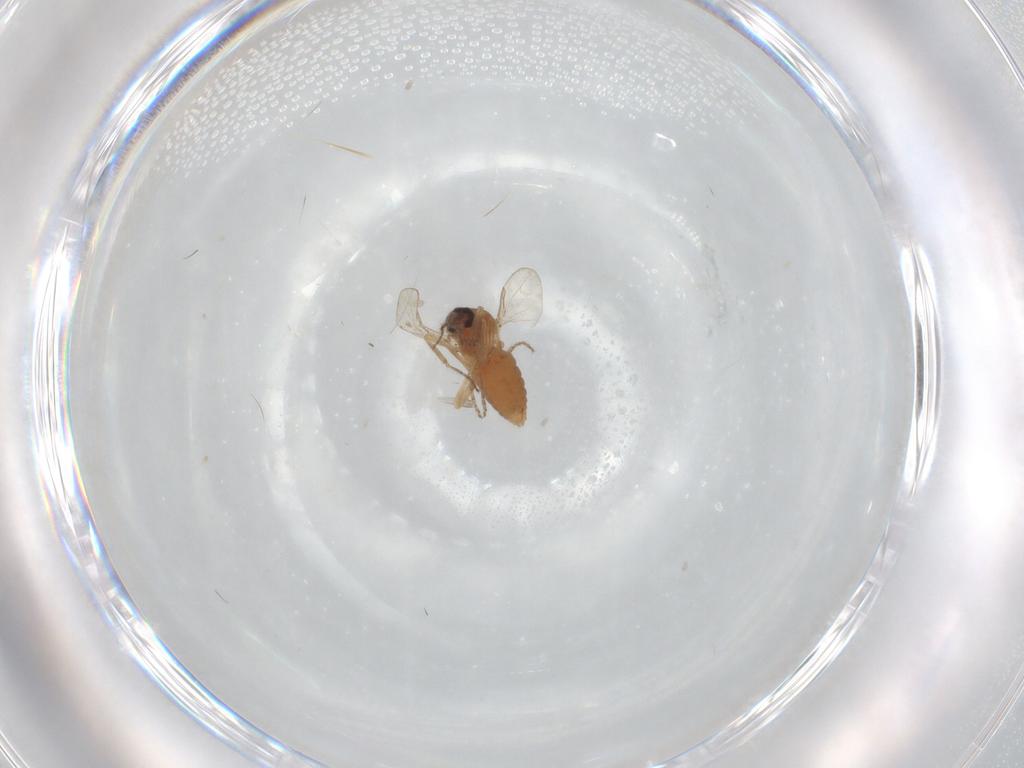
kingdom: Animalia
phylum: Arthropoda
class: Insecta
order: Diptera
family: Ceratopogonidae
